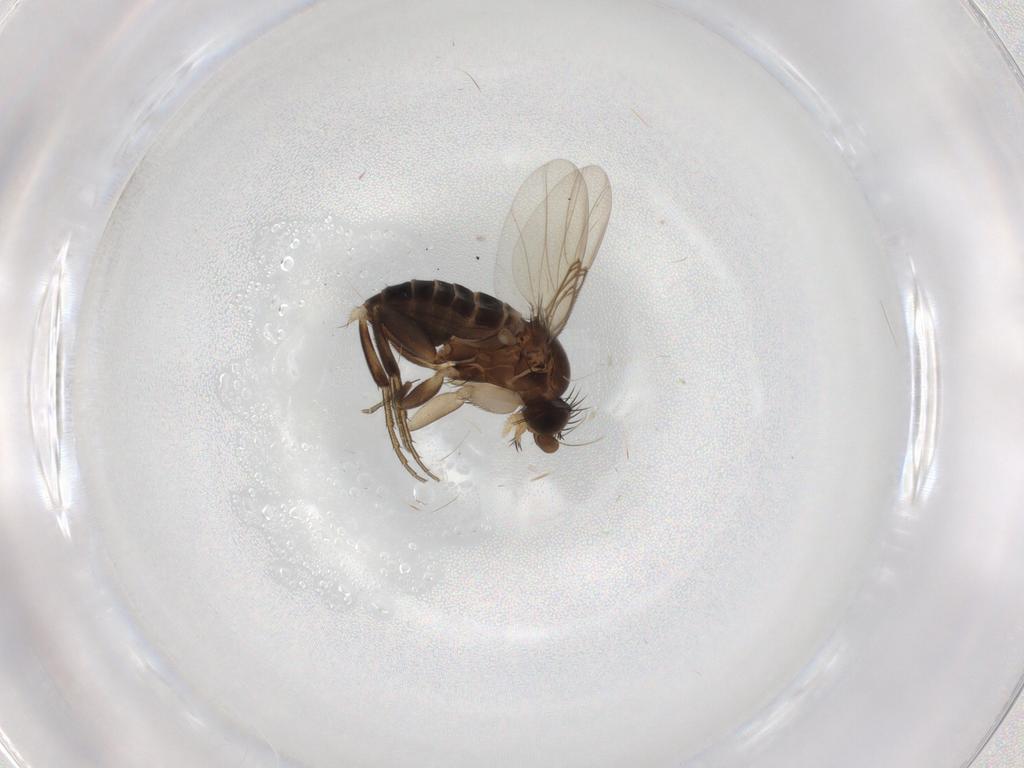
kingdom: Animalia
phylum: Arthropoda
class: Insecta
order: Diptera
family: Phoridae
